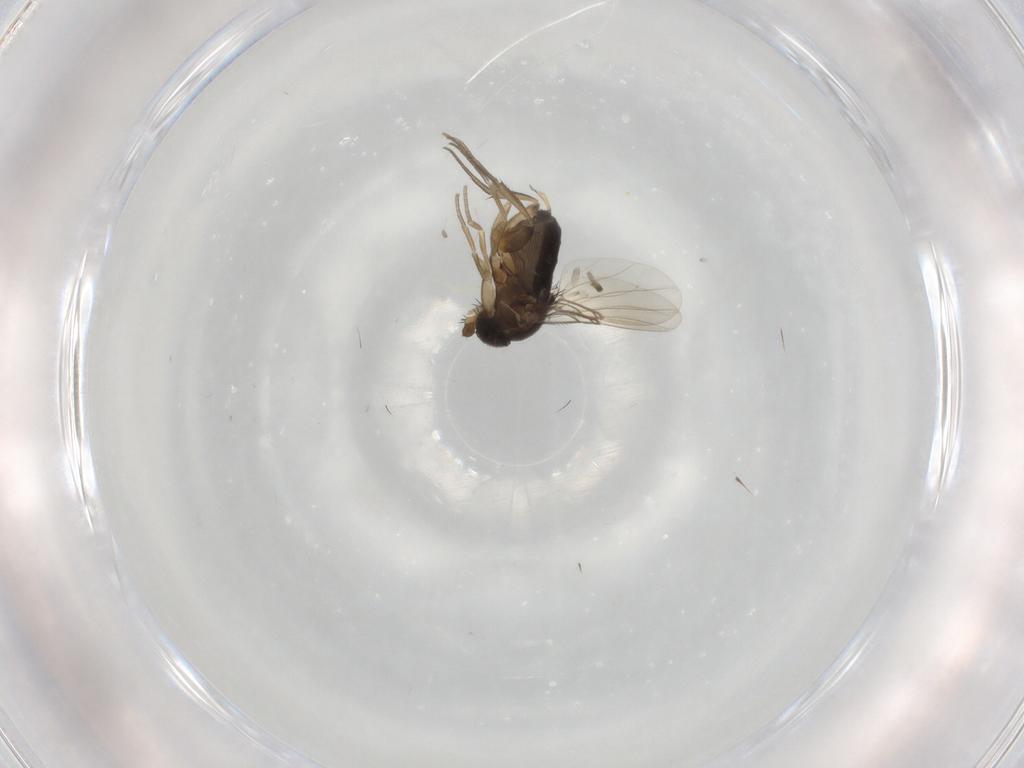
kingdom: Animalia
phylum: Arthropoda
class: Insecta
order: Diptera
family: Phoridae
